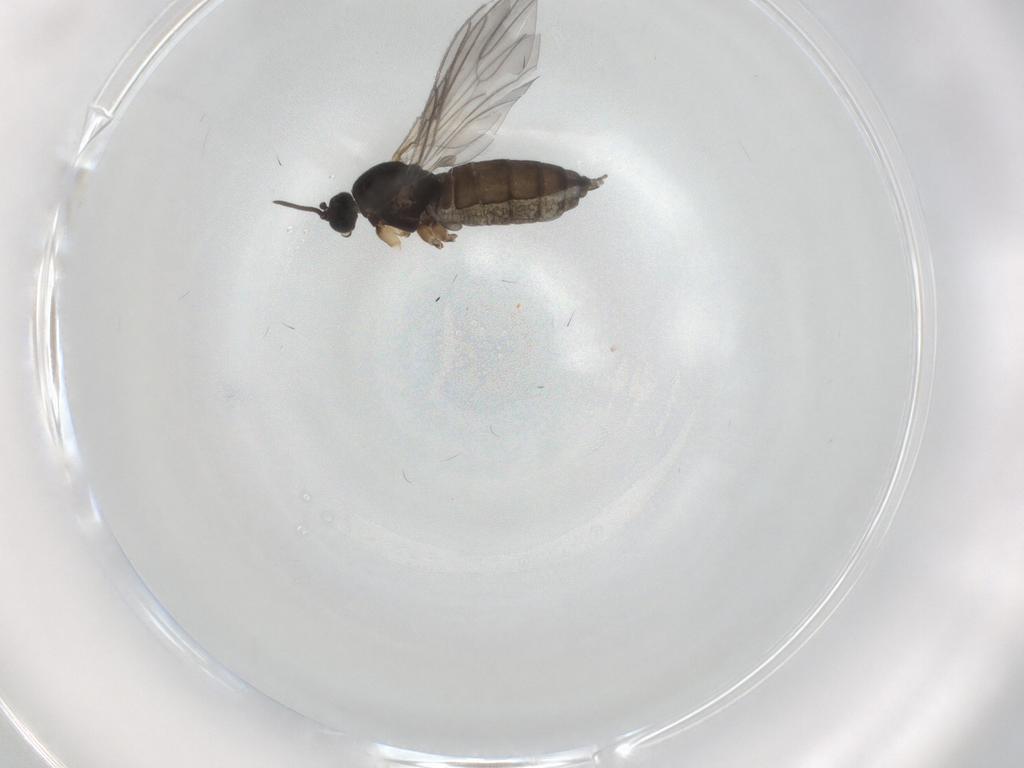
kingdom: Animalia
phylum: Arthropoda
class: Insecta
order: Diptera
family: Sciaridae
